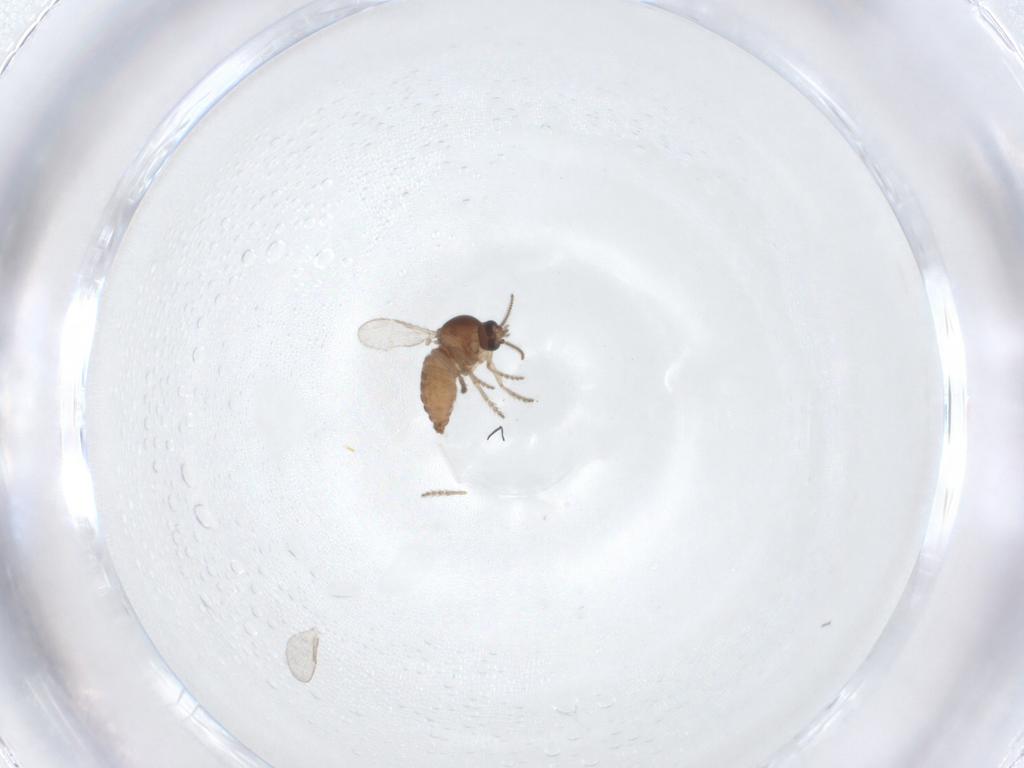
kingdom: Animalia
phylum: Arthropoda
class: Insecta
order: Diptera
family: Ceratopogonidae
